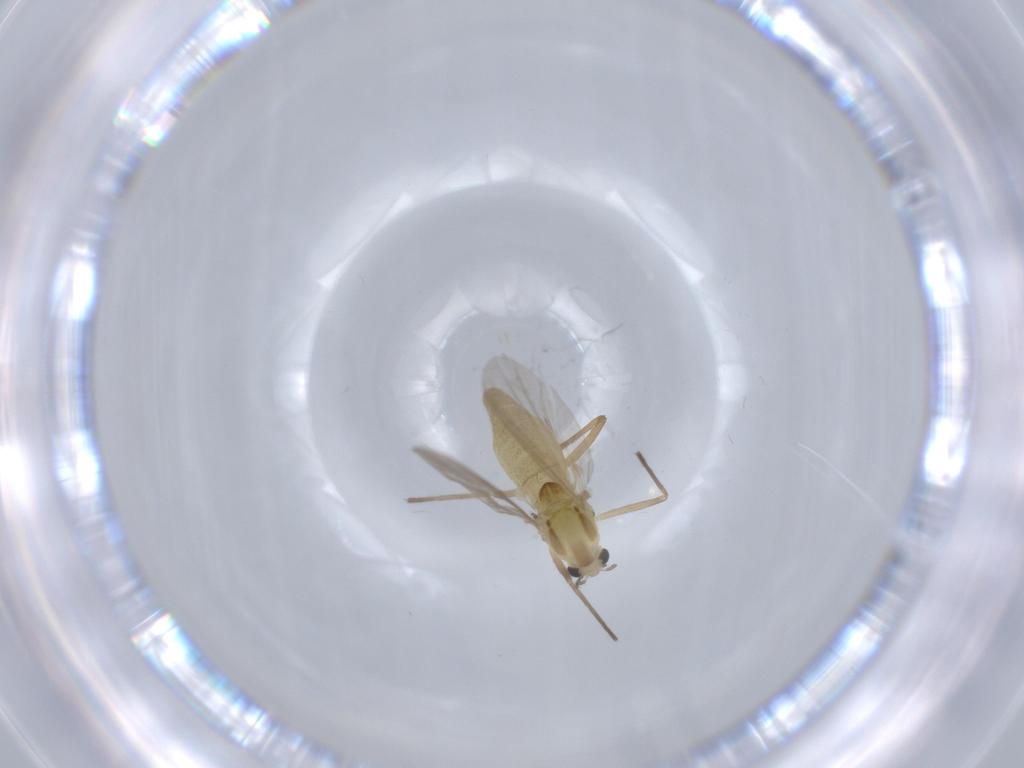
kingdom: Animalia
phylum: Arthropoda
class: Insecta
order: Diptera
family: Chironomidae
